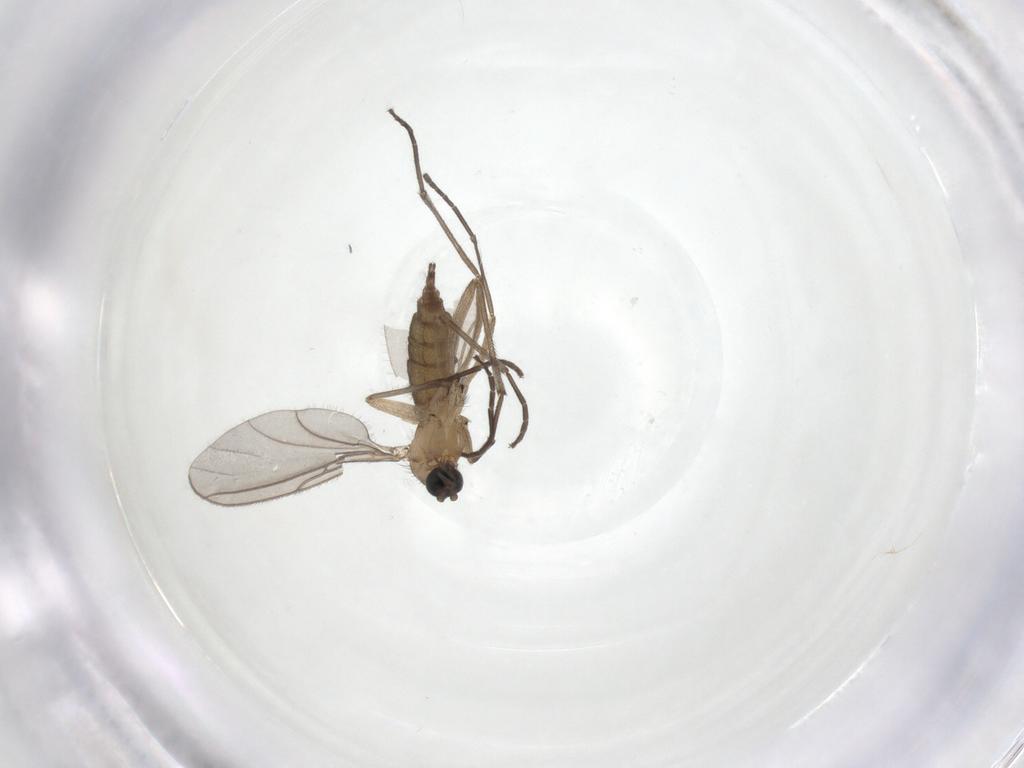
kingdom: Animalia
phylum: Arthropoda
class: Insecta
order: Diptera
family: Sciaridae
